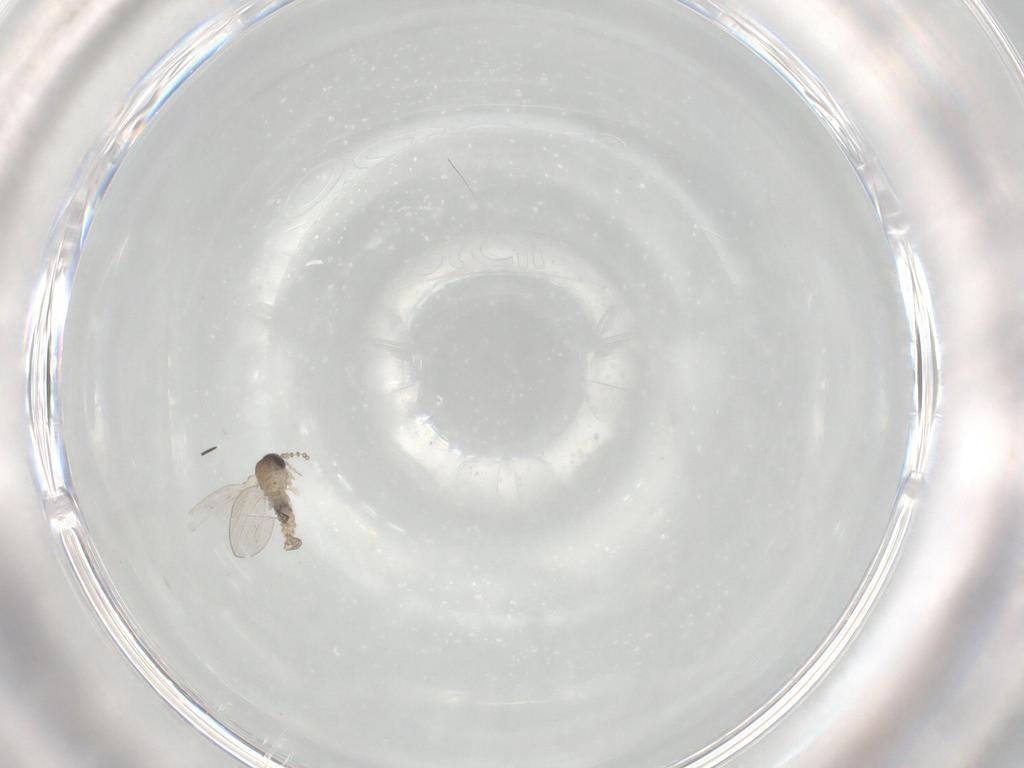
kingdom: Animalia
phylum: Arthropoda
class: Insecta
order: Diptera
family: Psychodidae
